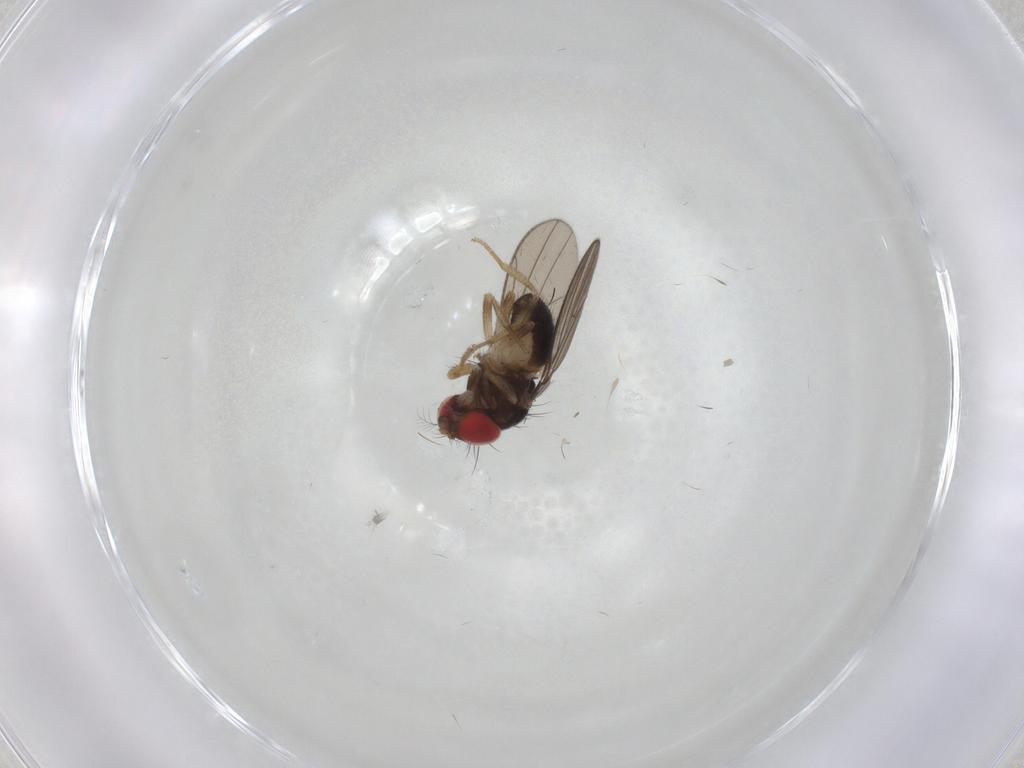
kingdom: Animalia
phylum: Arthropoda
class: Insecta
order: Diptera
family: Drosophilidae
